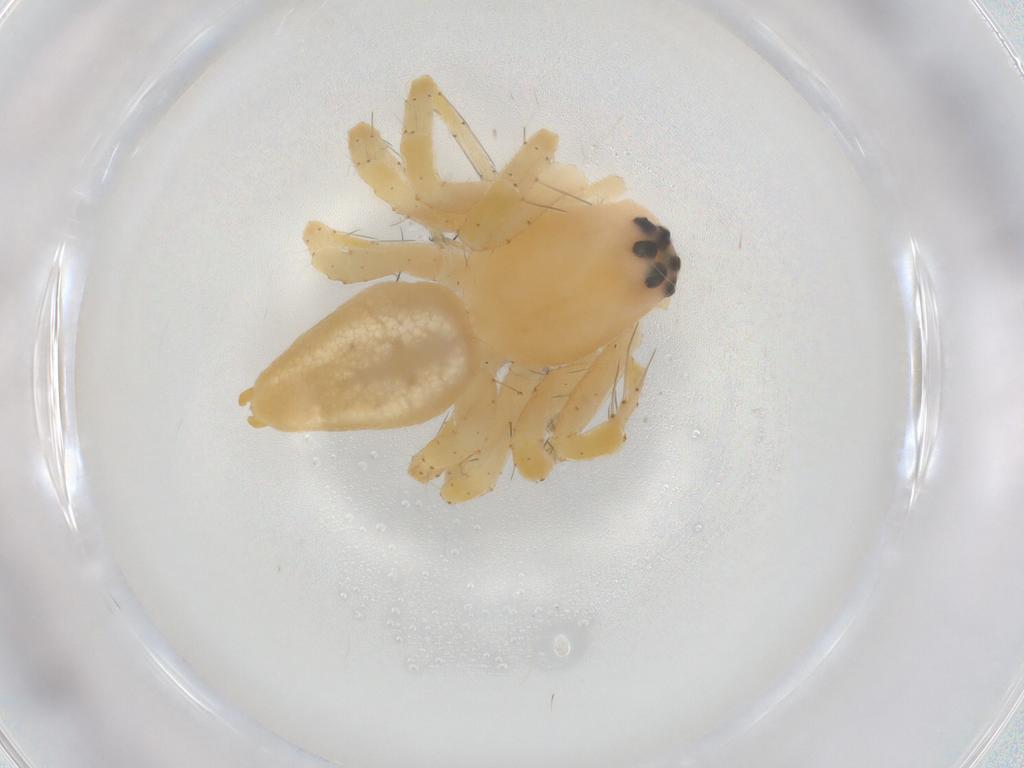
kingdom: Animalia
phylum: Arthropoda
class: Arachnida
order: Araneae
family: Oxyopidae
